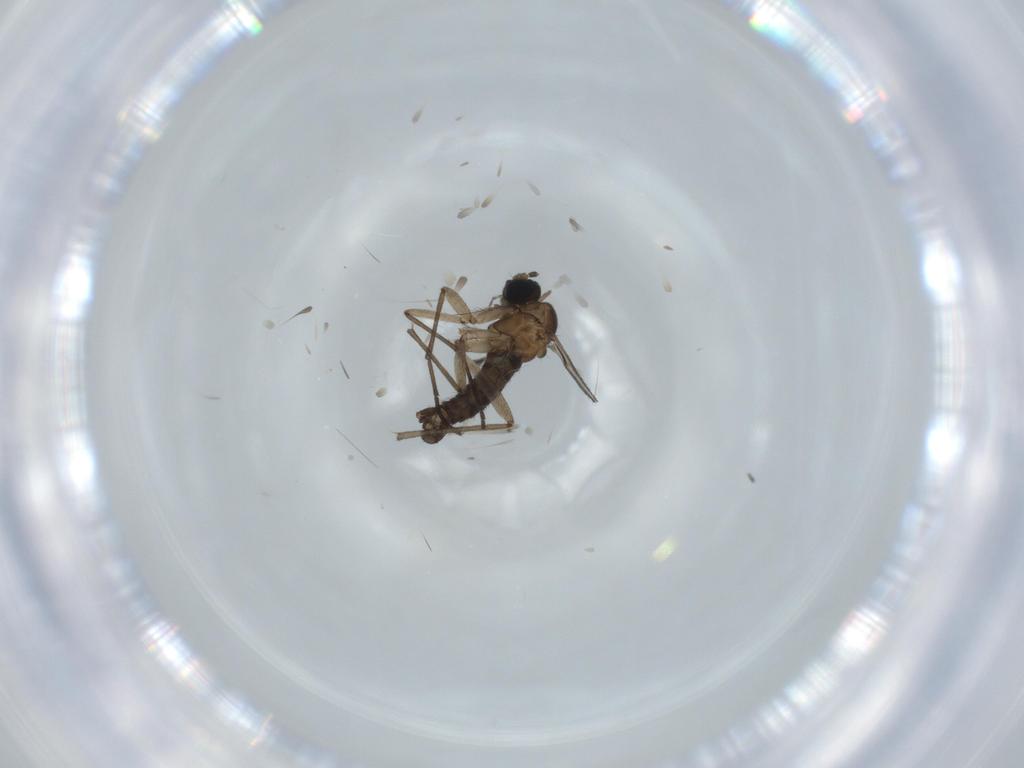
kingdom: Animalia
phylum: Arthropoda
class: Insecta
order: Diptera
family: Sciaridae
